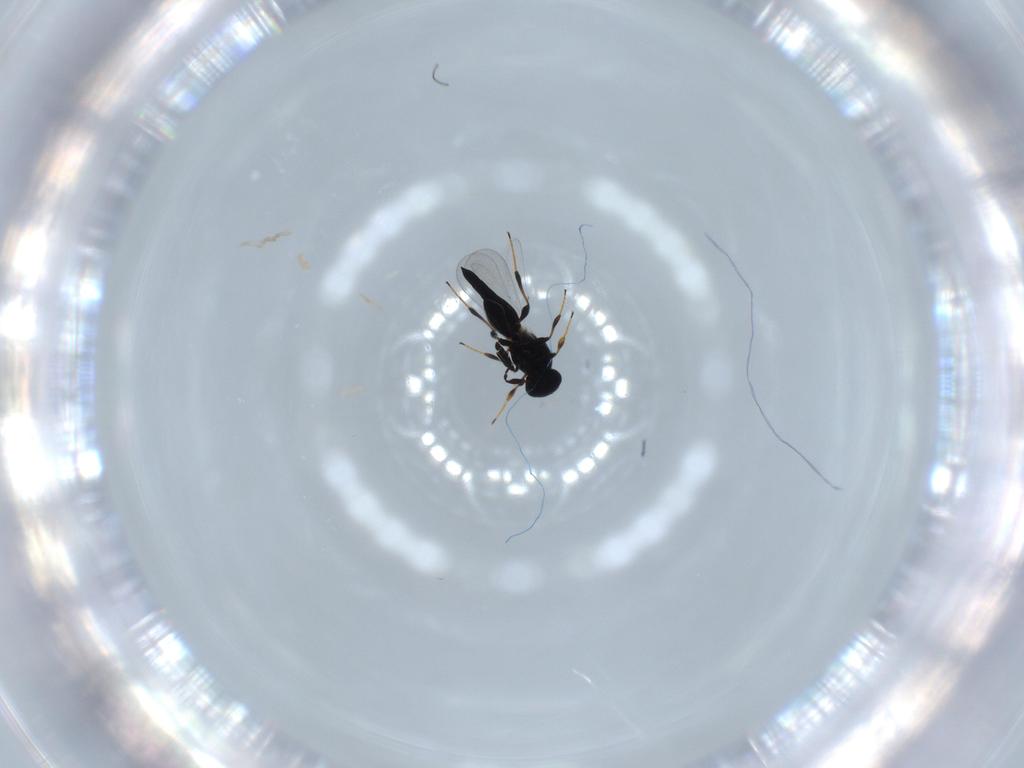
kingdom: Animalia
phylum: Arthropoda
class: Insecta
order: Hymenoptera
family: Platygastridae
